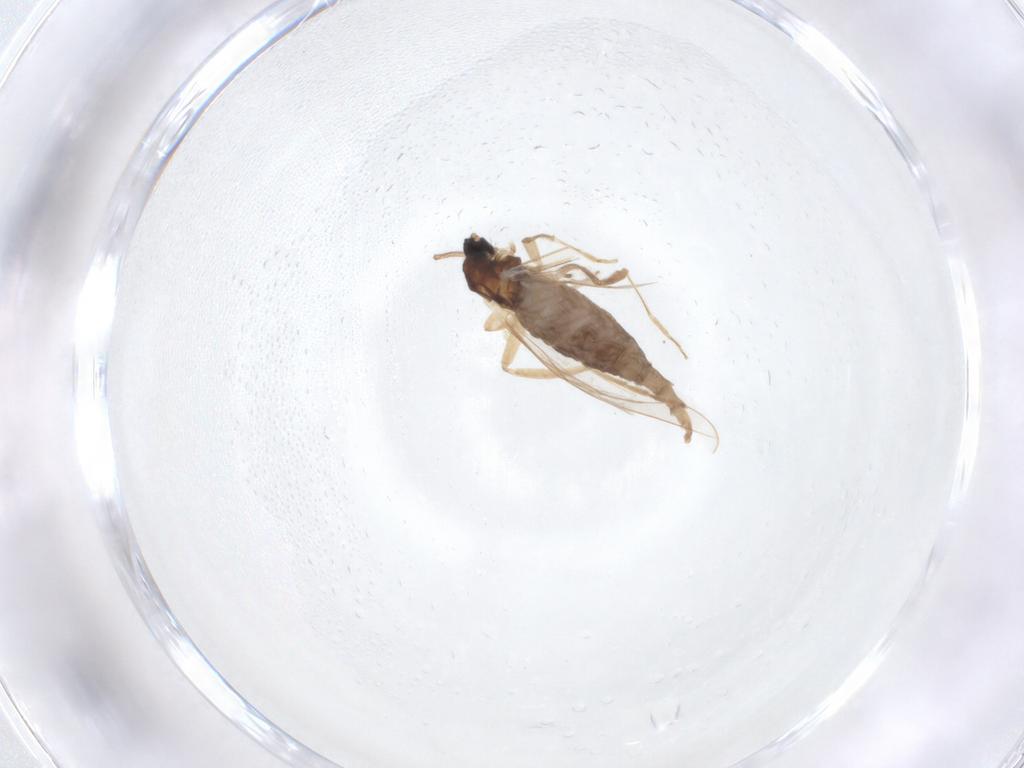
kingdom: Animalia
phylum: Arthropoda
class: Insecta
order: Diptera
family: Cecidomyiidae
